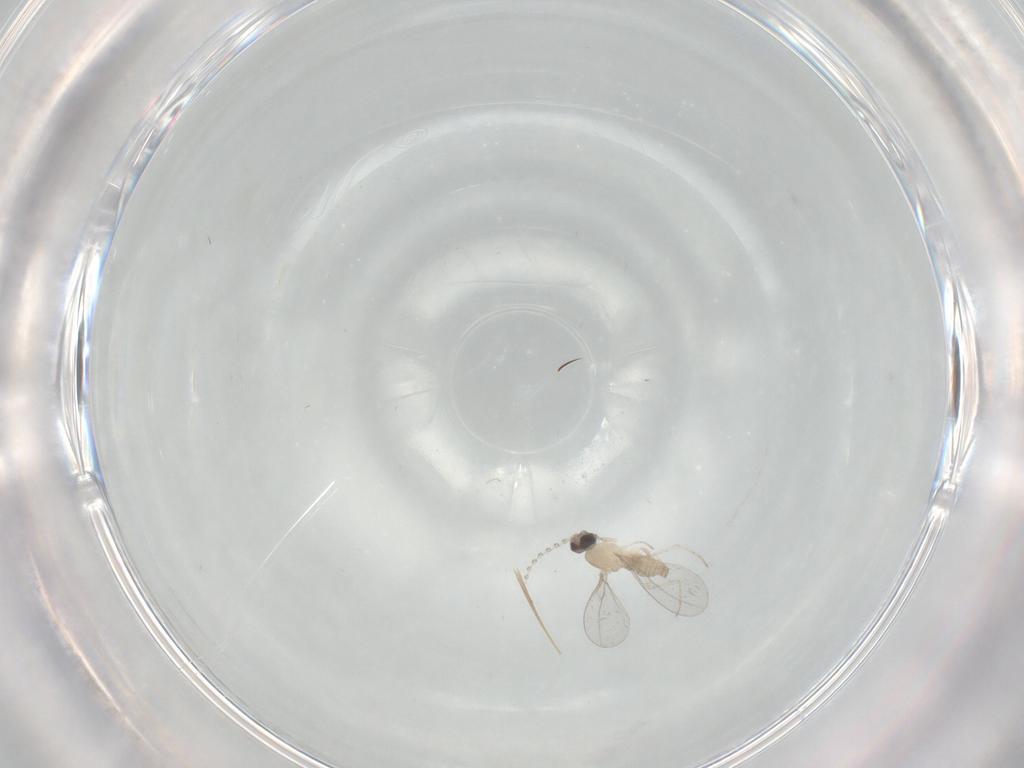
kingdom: Animalia
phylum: Arthropoda
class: Insecta
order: Diptera
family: Cecidomyiidae
